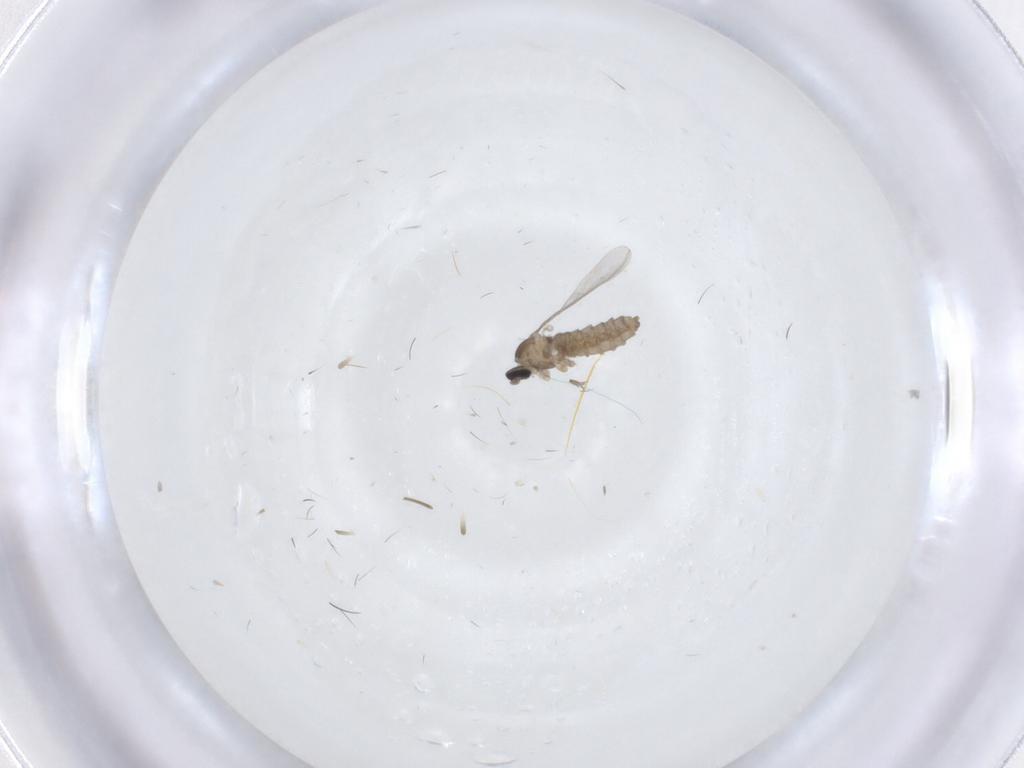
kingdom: Animalia
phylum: Arthropoda
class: Insecta
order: Diptera
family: Cecidomyiidae
